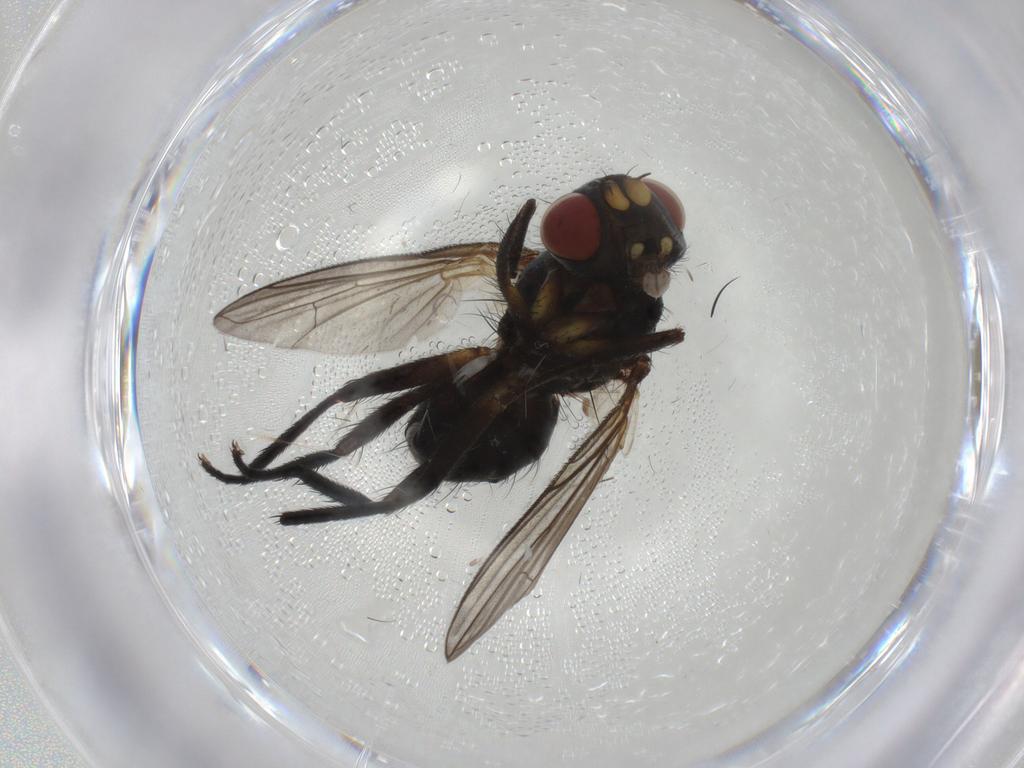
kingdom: Animalia
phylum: Arthropoda
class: Insecta
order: Diptera
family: Tachinidae
